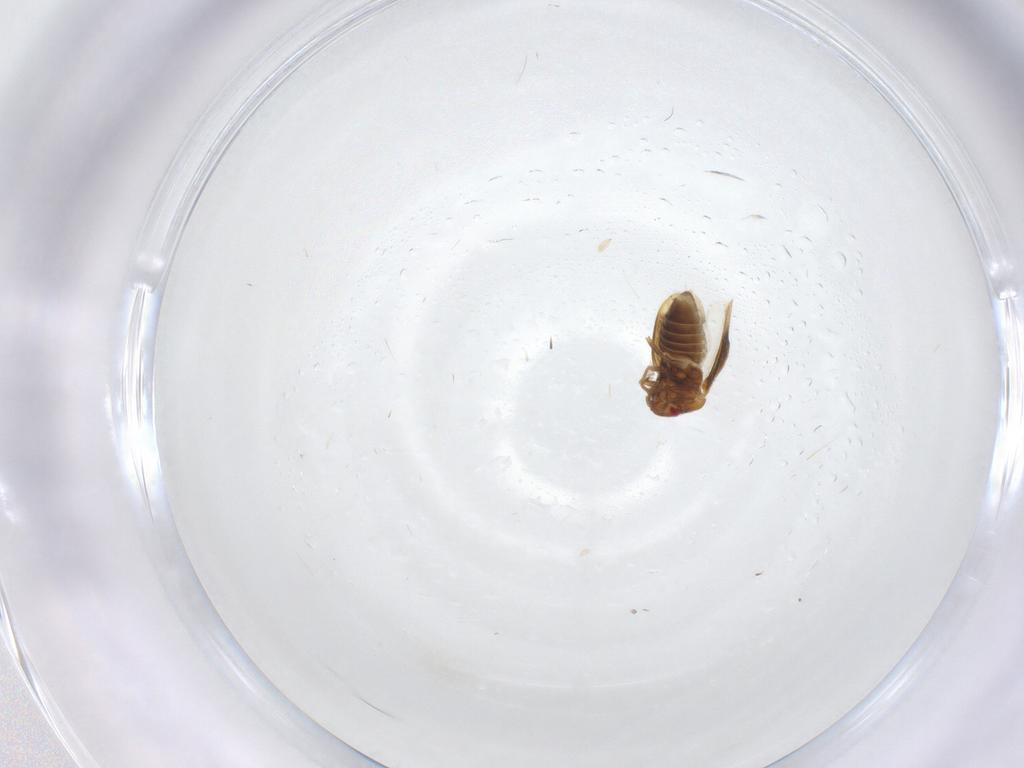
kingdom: Animalia
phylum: Arthropoda
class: Insecta
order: Hemiptera
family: Schizopteridae
